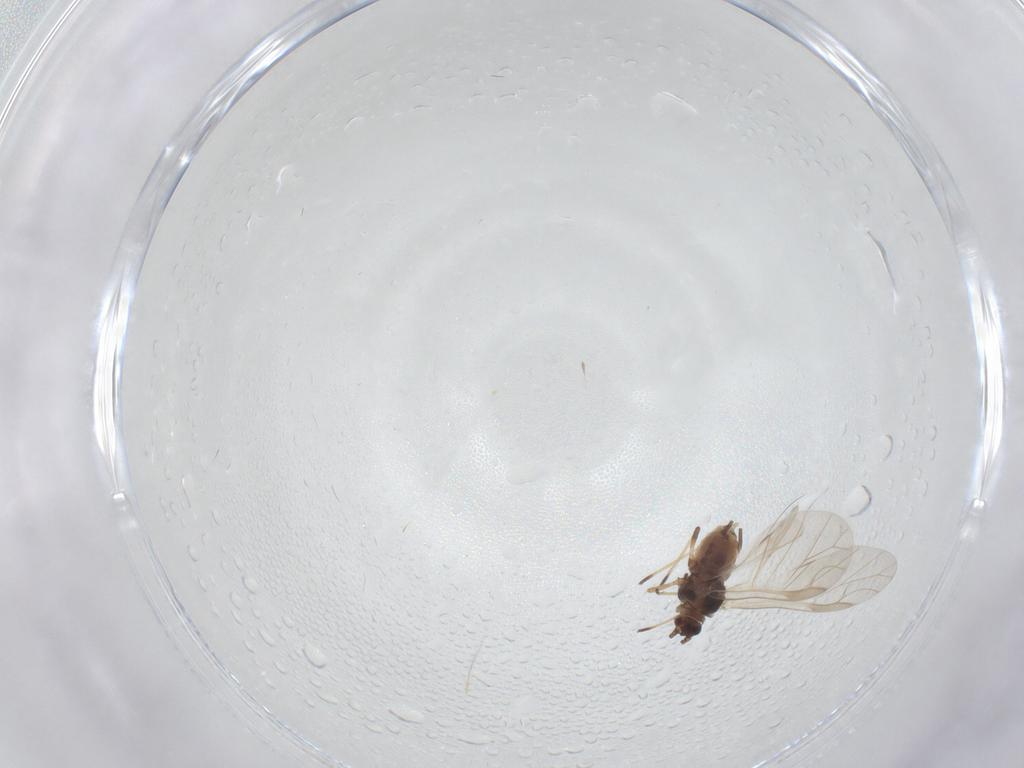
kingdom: Animalia
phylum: Arthropoda
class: Insecta
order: Hemiptera
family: Aphididae
